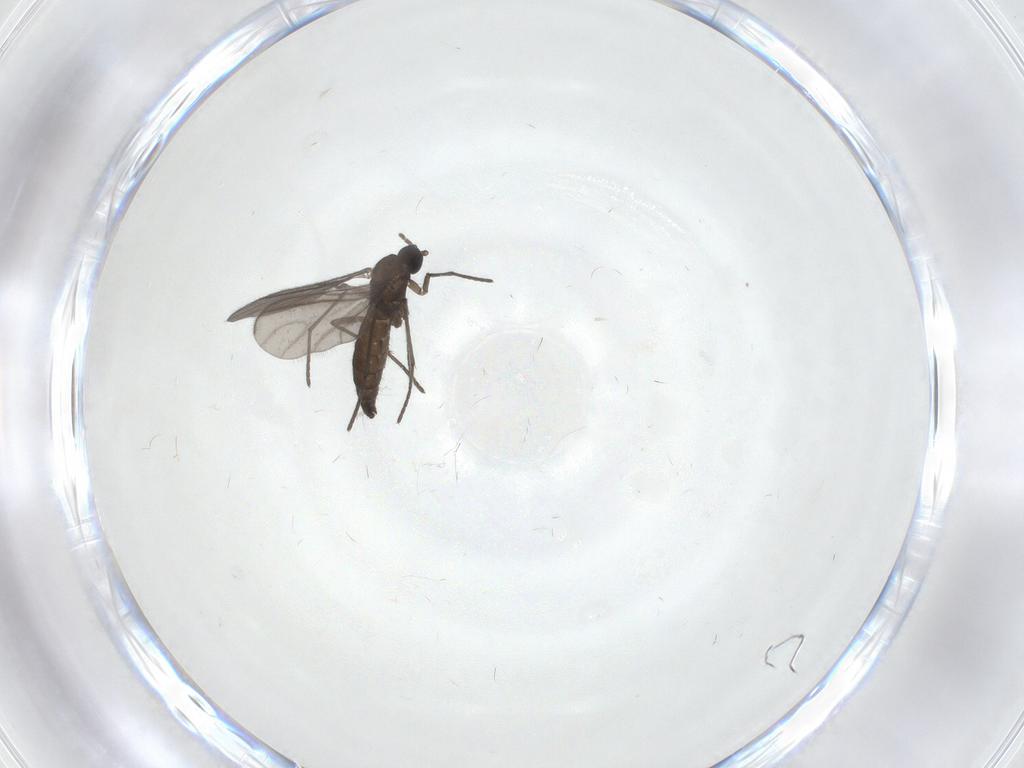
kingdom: Animalia
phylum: Arthropoda
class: Insecta
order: Diptera
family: Sciaridae
